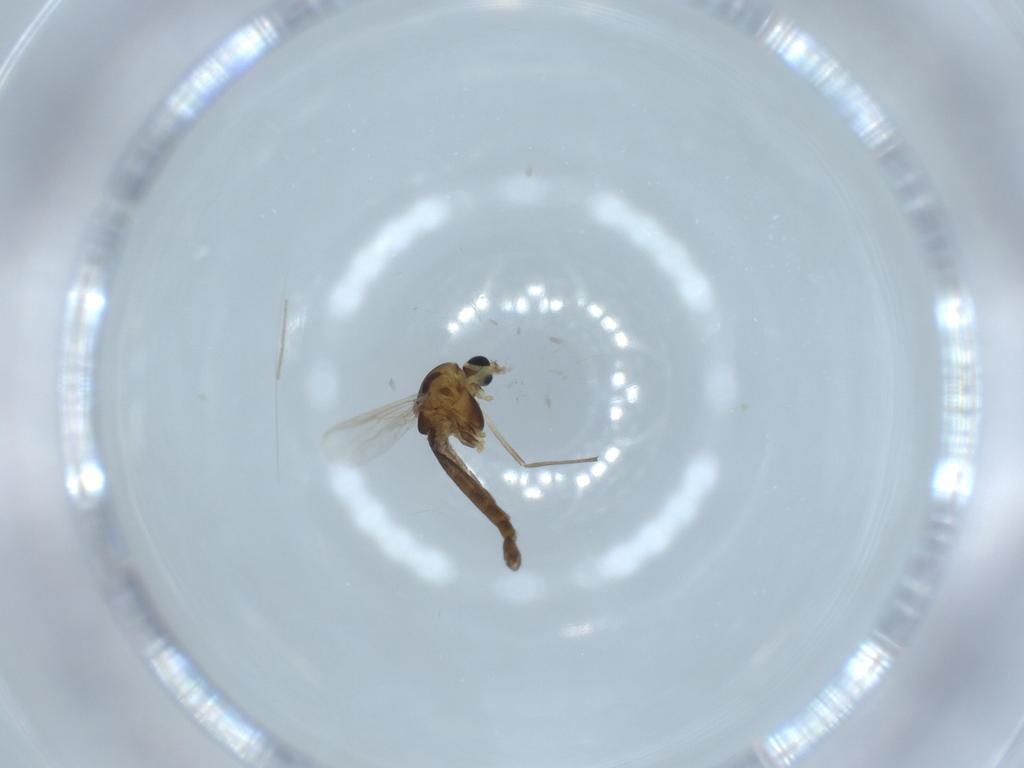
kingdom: Animalia
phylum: Arthropoda
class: Insecta
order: Diptera
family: Chironomidae
